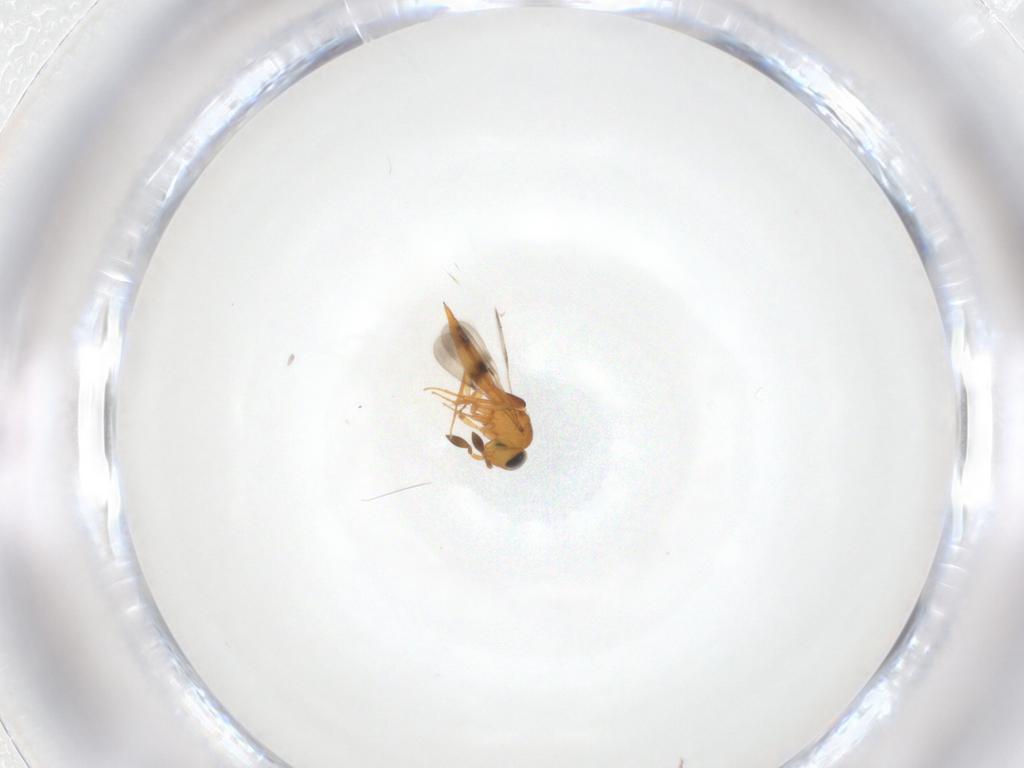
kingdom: Animalia
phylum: Arthropoda
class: Insecta
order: Hymenoptera
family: Scelionidae
